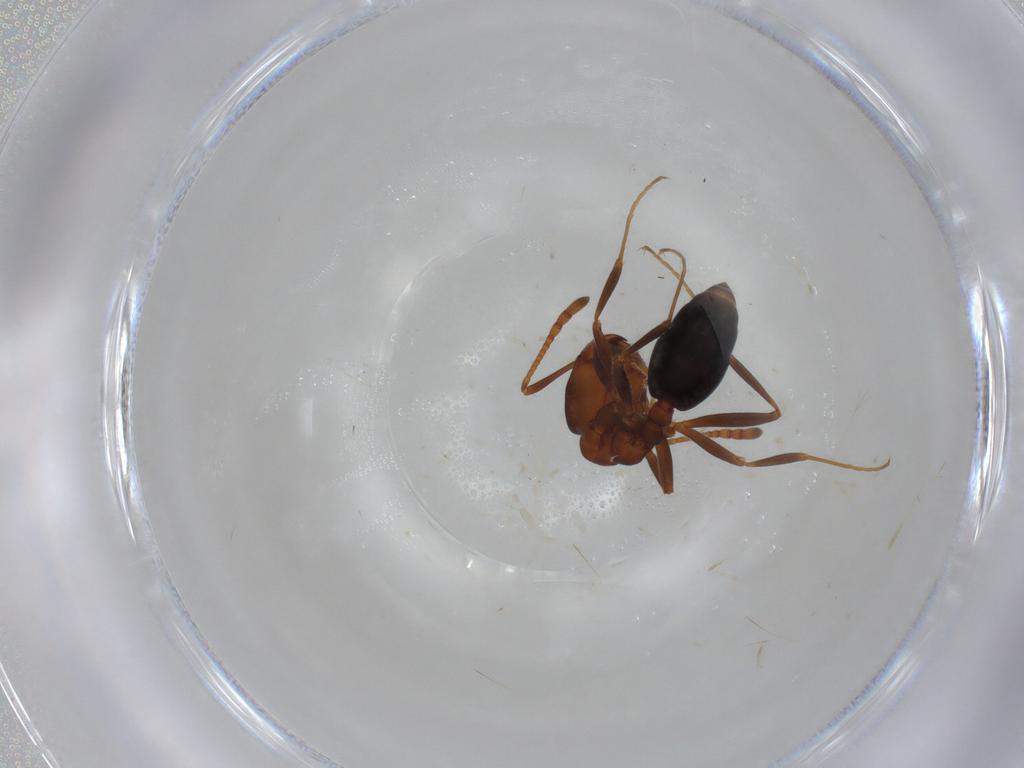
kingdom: Animalia
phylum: Arthropoda
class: Insecta
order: Hymenoptera
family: Formicidae
